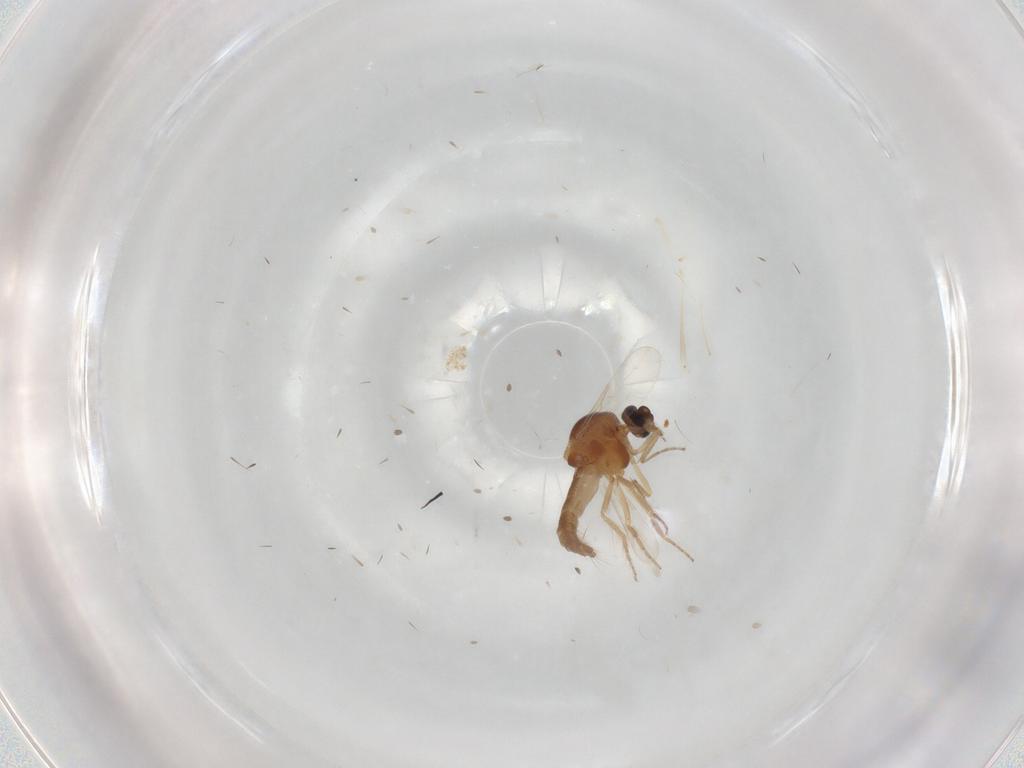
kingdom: Animalia
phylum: Arthropoda
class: Insecta
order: Diptera
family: Ceratopogonidae
